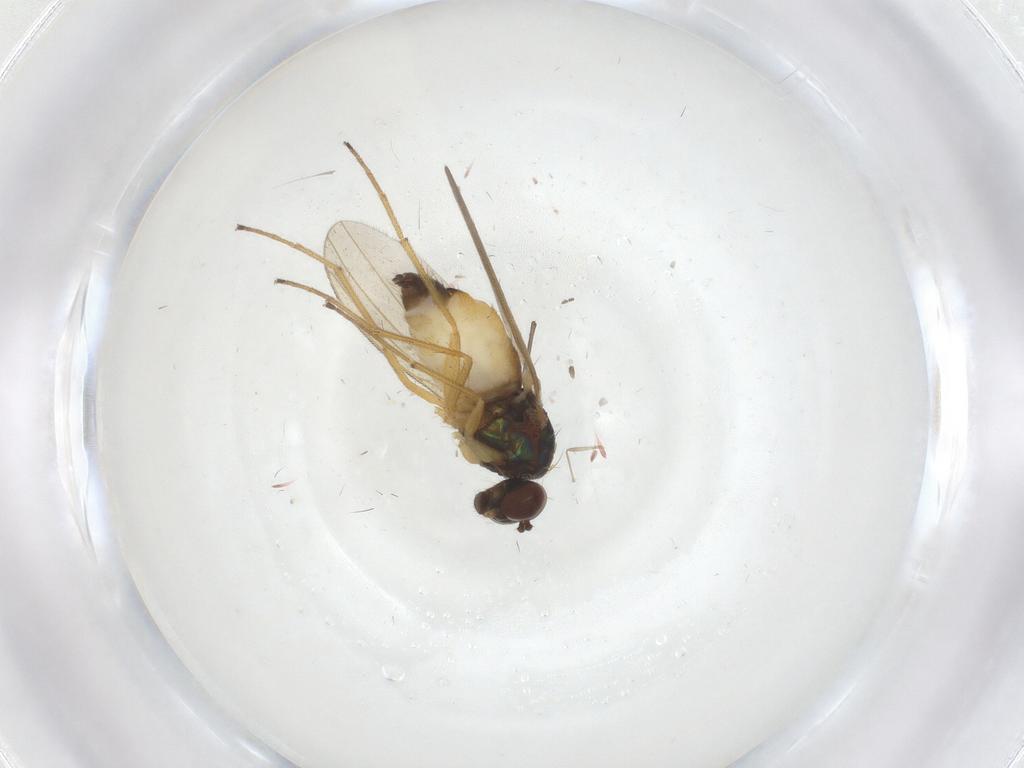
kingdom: Animalia
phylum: Arthropoda
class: Insecta
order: Diptera
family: Dolichopodidae
